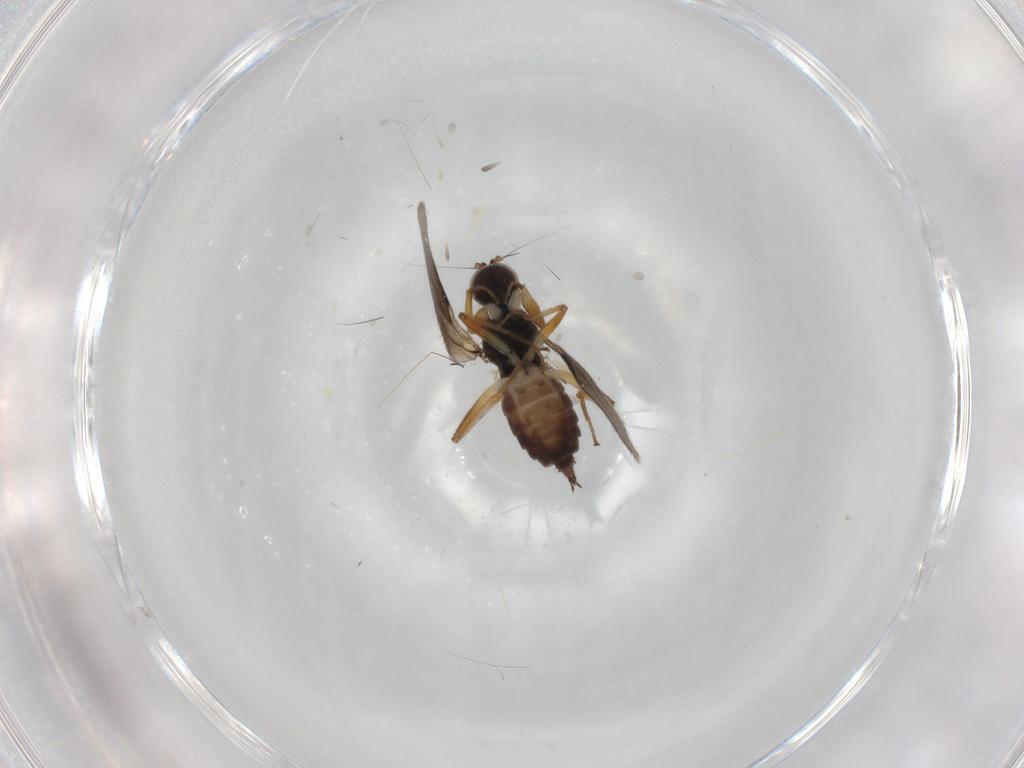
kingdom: Animalia
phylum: Arthropoda
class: Insecta
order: Diptera
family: Hybotidae
